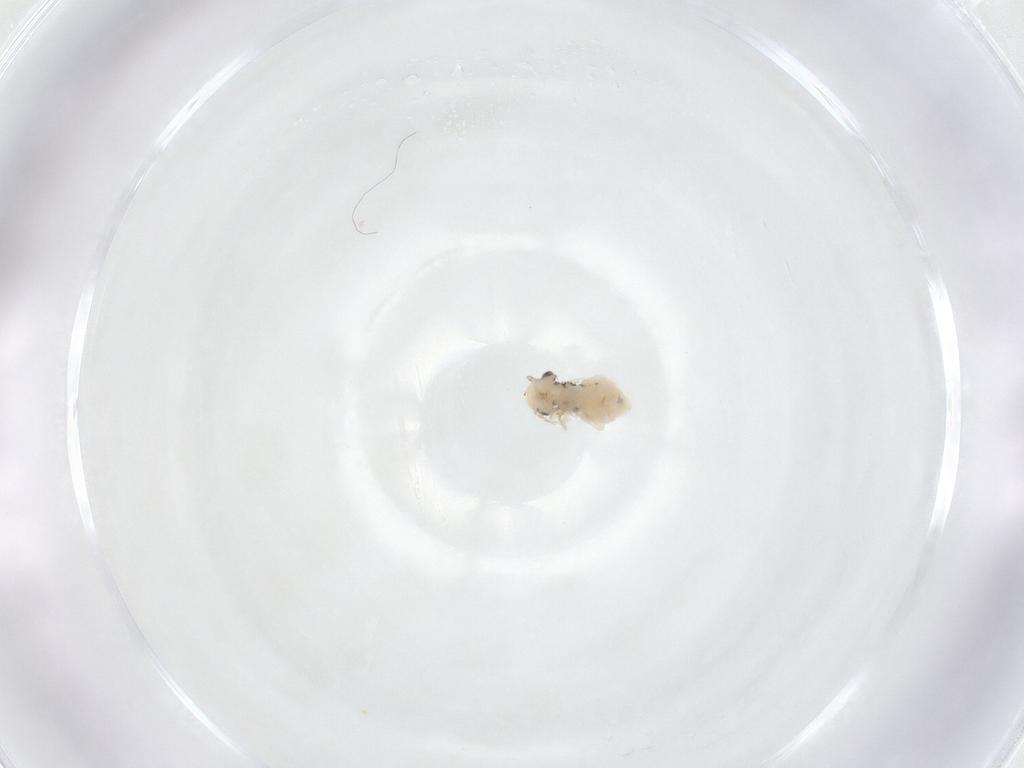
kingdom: Animalia
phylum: Arthropoda
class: Insecta
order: Psocodea
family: Caeciliusidae
